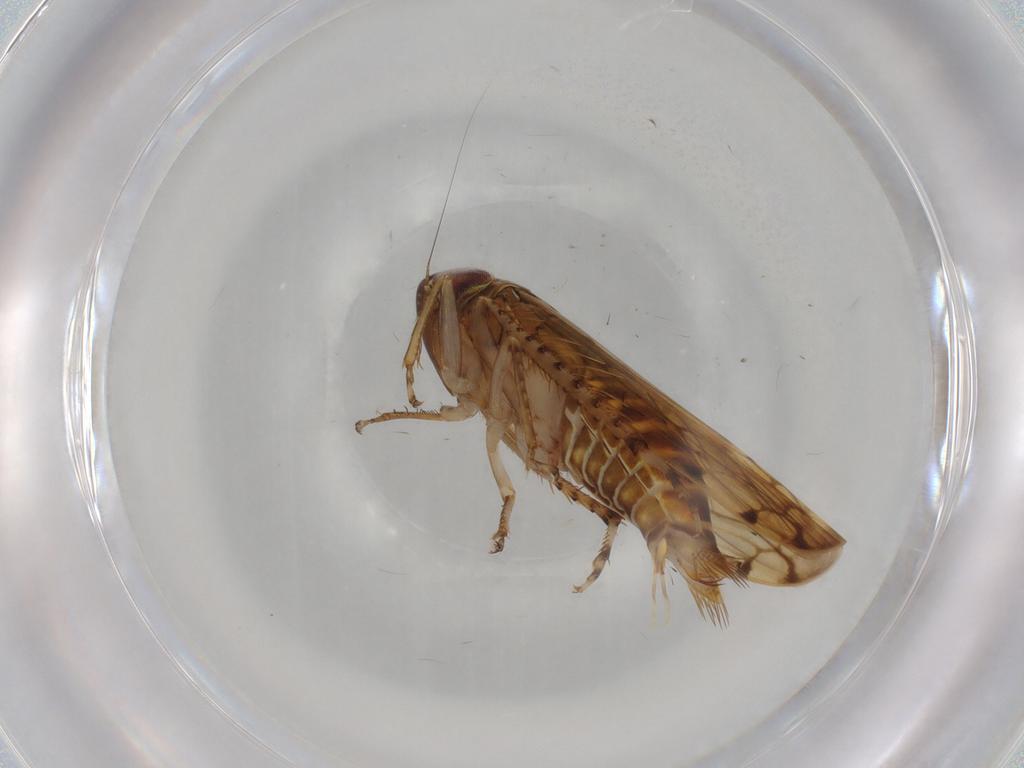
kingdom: Animalia
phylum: Arthropoda
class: Insecta
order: Hemiptera
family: Cicadellidae
